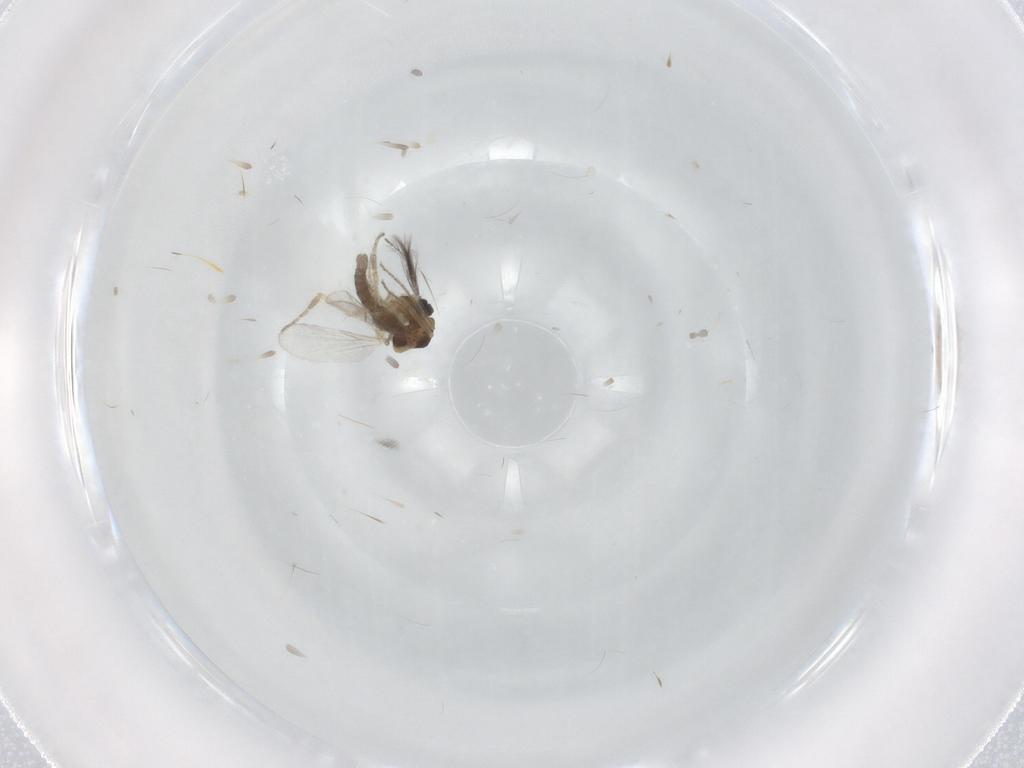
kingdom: Animalia
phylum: Arthropoda
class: Insecta
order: Diptera
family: Ceratopogonidae
